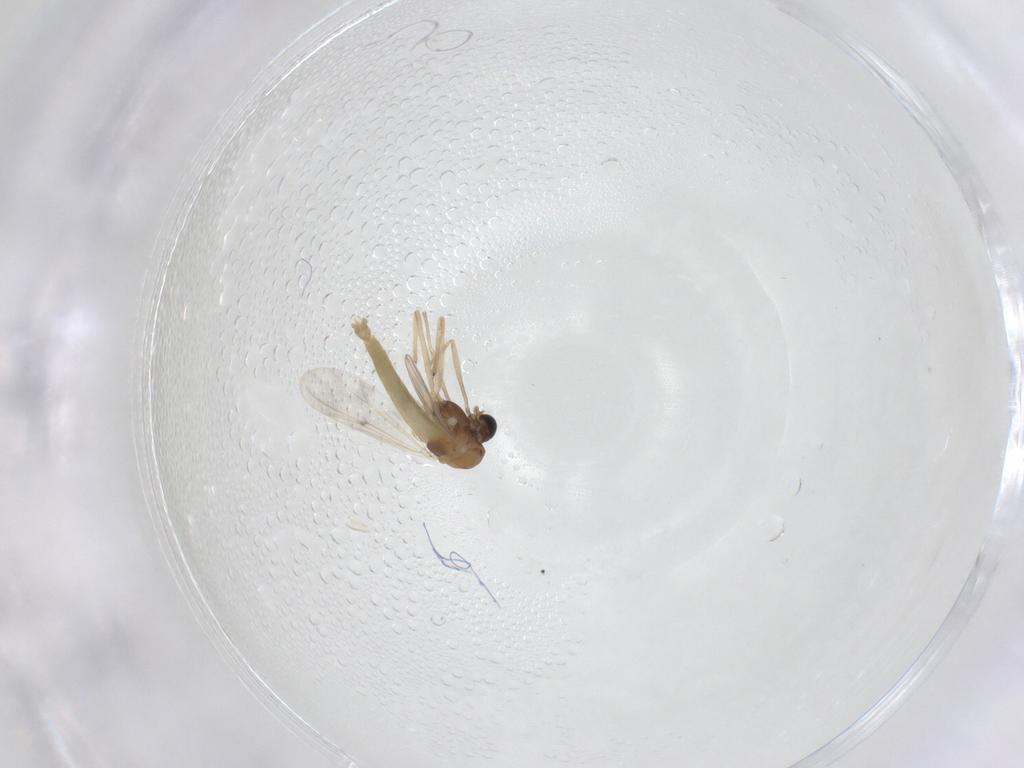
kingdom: Animalia
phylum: Arthropoda
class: Insecta
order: Diptera
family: Chironomidae
